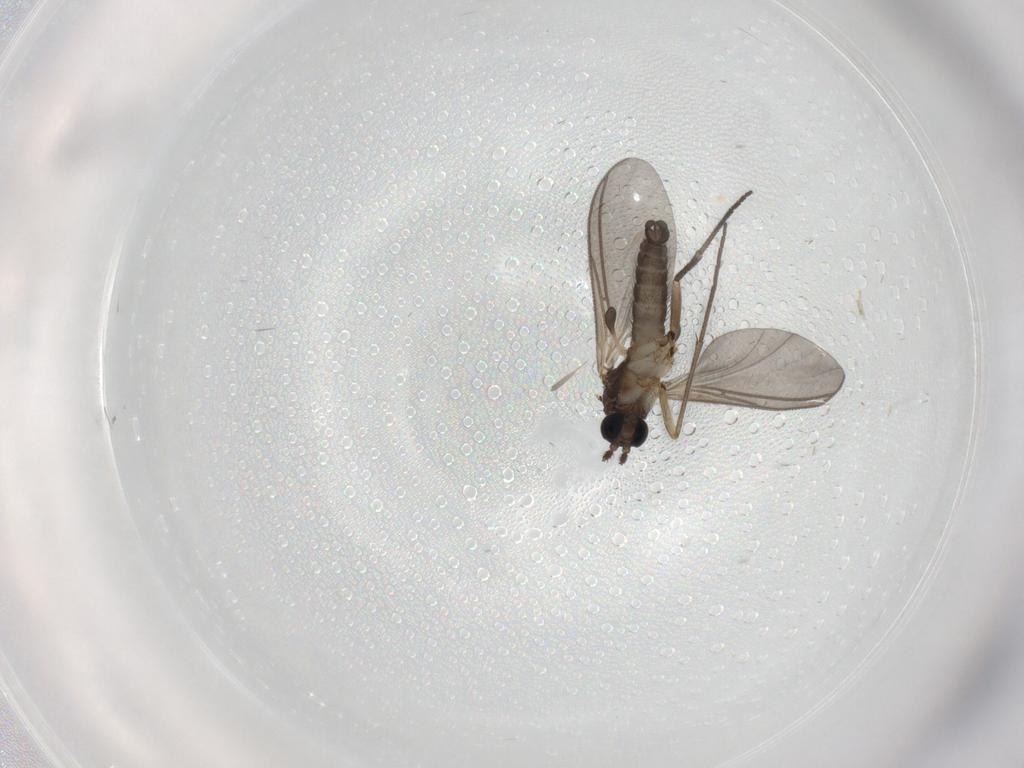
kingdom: Animalia
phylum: Arthropoda
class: Insecta
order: Diptera
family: Sciaridae
